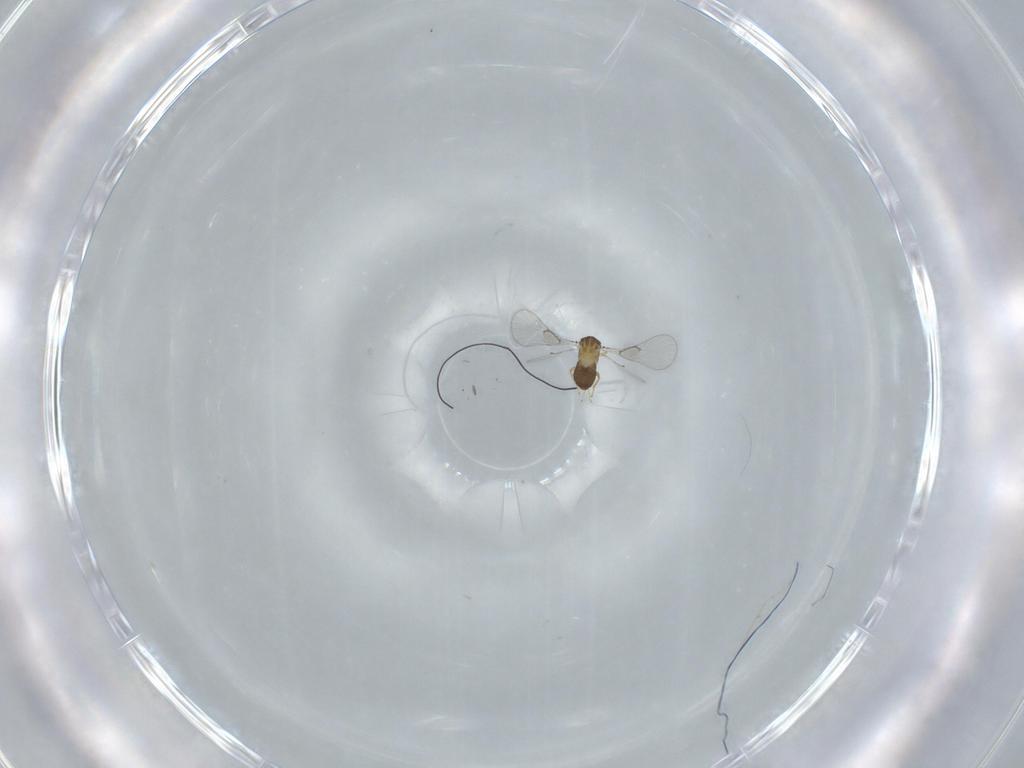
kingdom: Animalia
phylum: Arthropoda
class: Insecta
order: Hymenoptera
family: Trichogrammatidae
